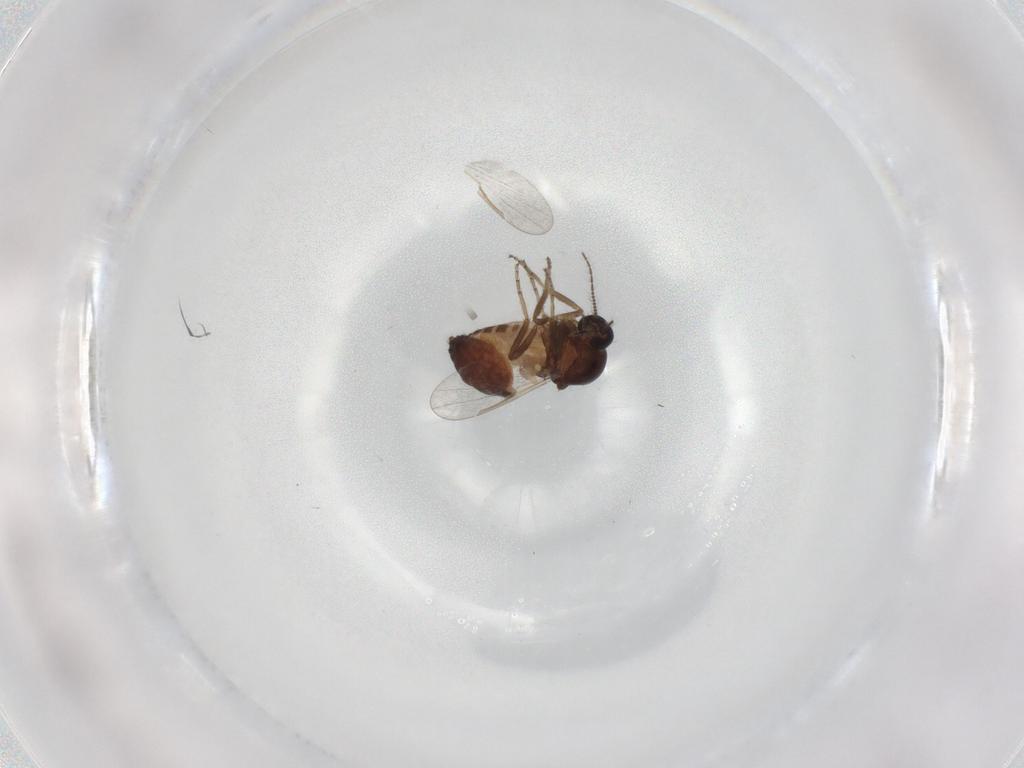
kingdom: Animalia
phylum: Arthropoda
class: Insecta
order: Diptera
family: Ceratopogonidae
